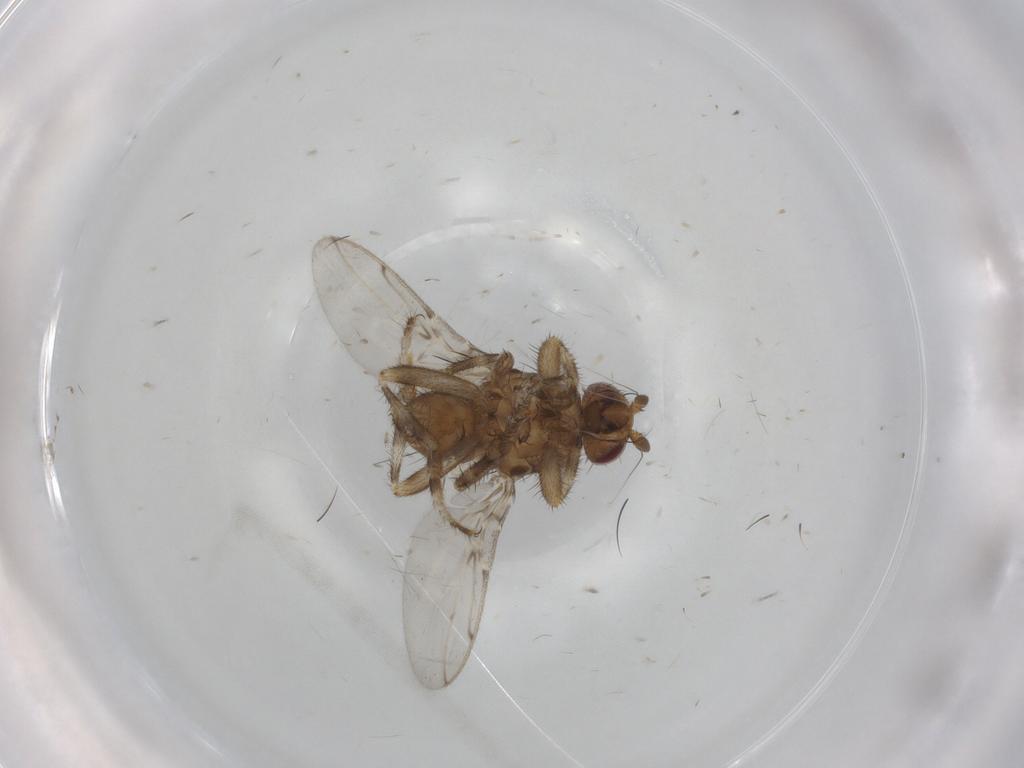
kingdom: Animalia
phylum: Arthropoda
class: Insecta
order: Diptera
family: Sphaeroceridae
